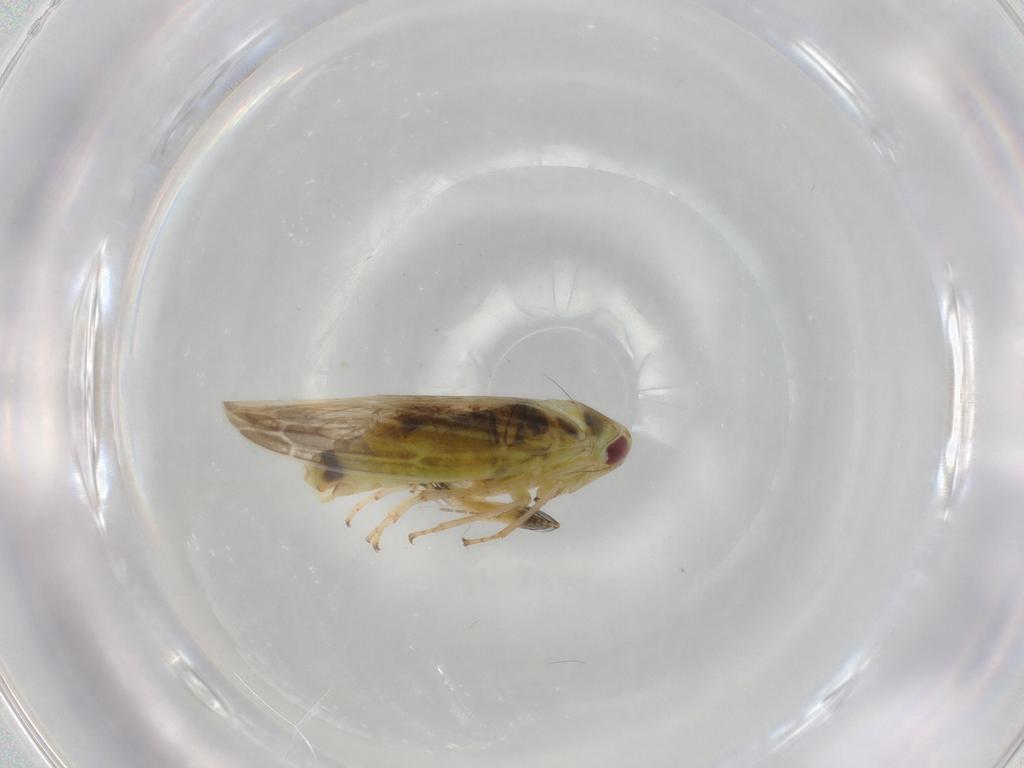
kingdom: Animalia
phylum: Arthropoda
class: Insecta
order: Hemiptera
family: Cicadellidae
